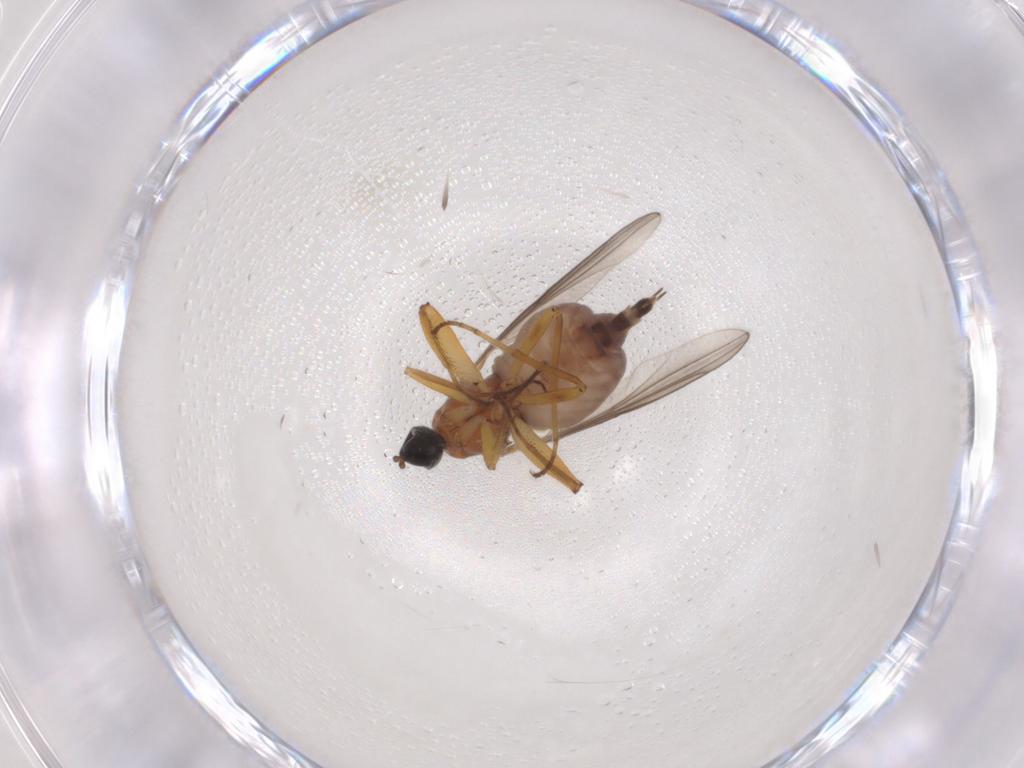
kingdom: Animalia
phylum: Arthropoda
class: Insecta
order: Diptera
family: Hybotidae
